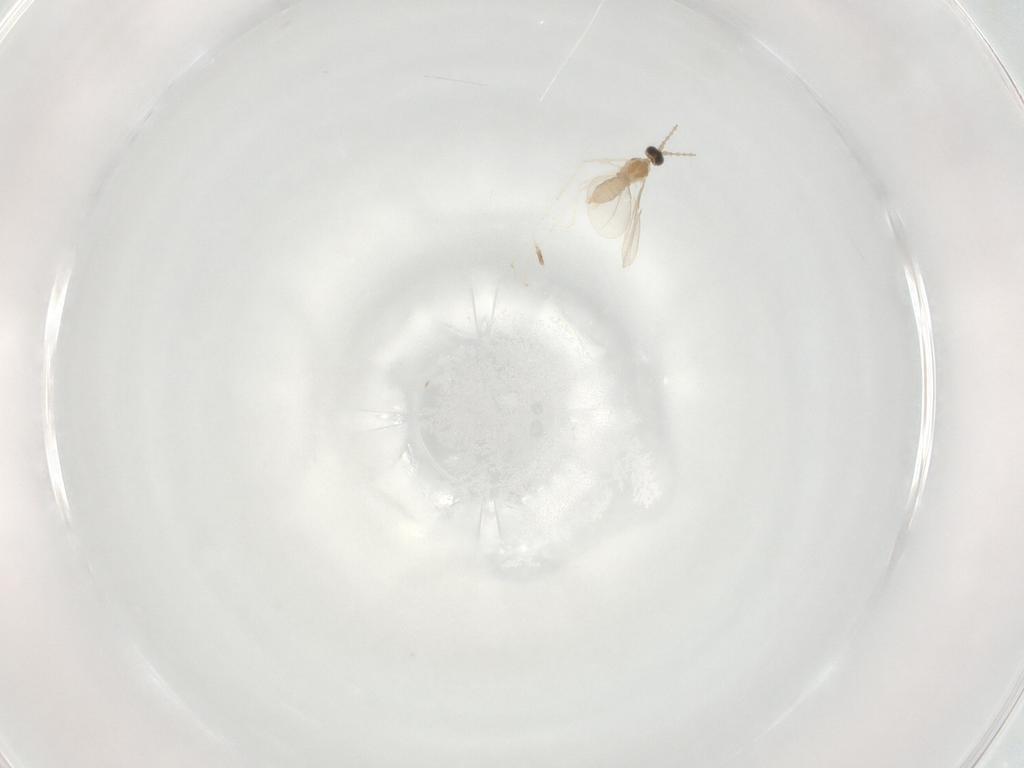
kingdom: Animalia
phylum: Arthropoda
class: Insecta
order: Diptera
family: Cecidomyiidae
